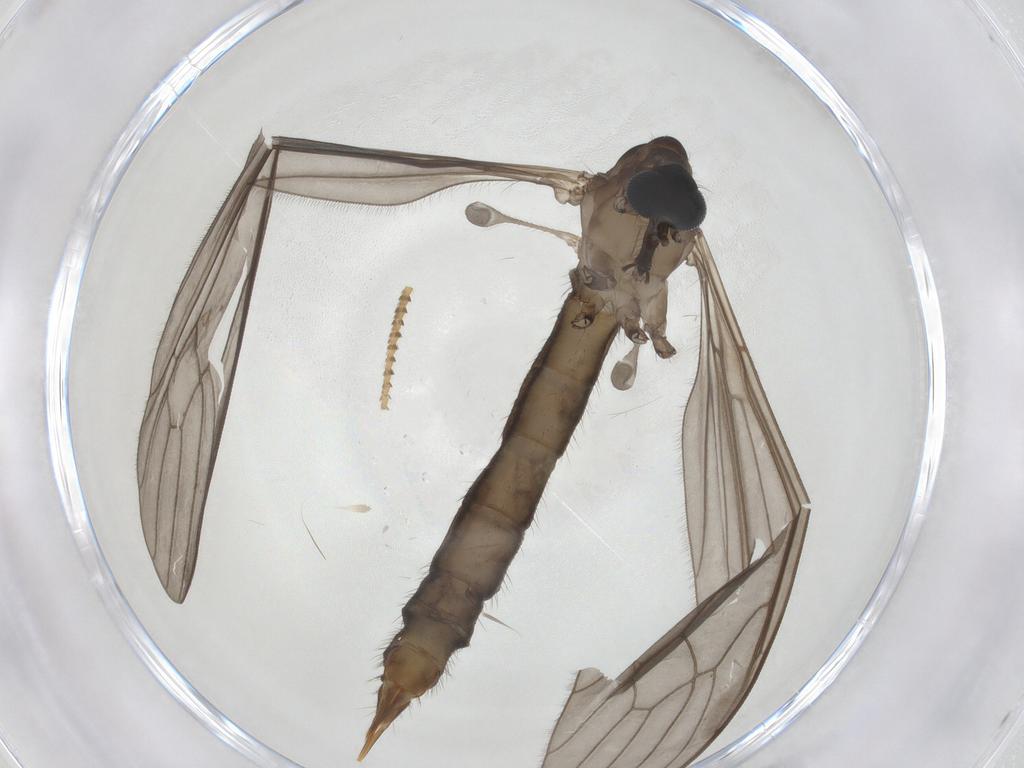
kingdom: Animalia
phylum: Arthropoda
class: Insecta
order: Diptera
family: Limoniidae
